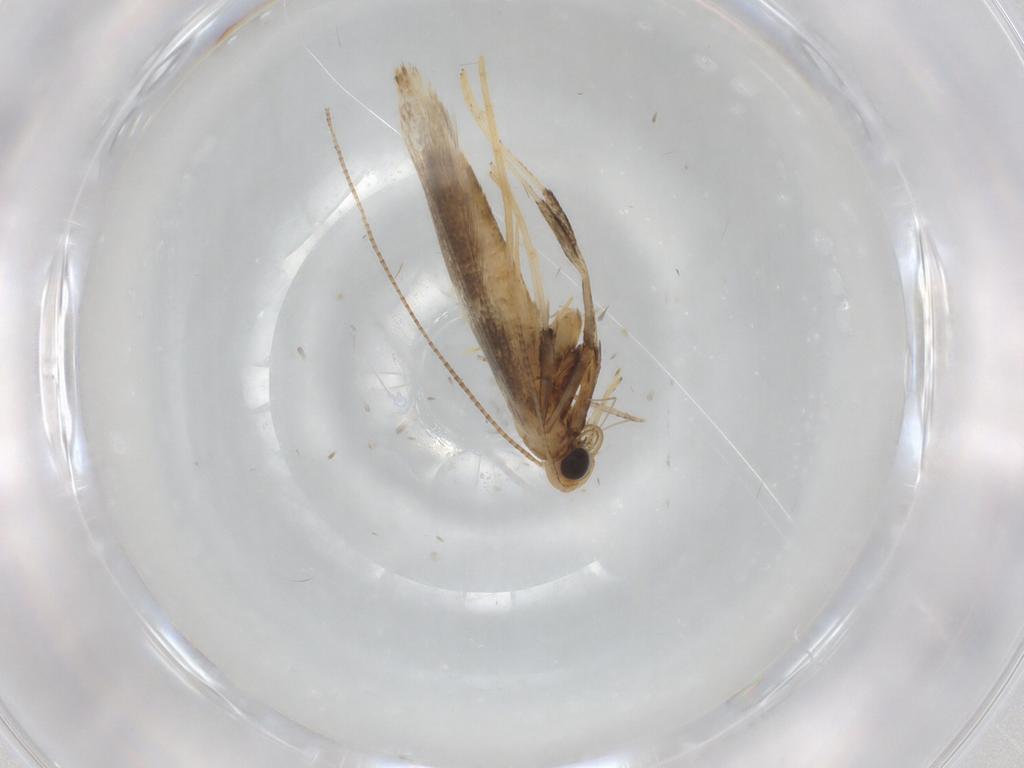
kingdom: Animalia
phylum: Arthropoda
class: Insecta
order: Lepidoptera
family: Gracillariidae
